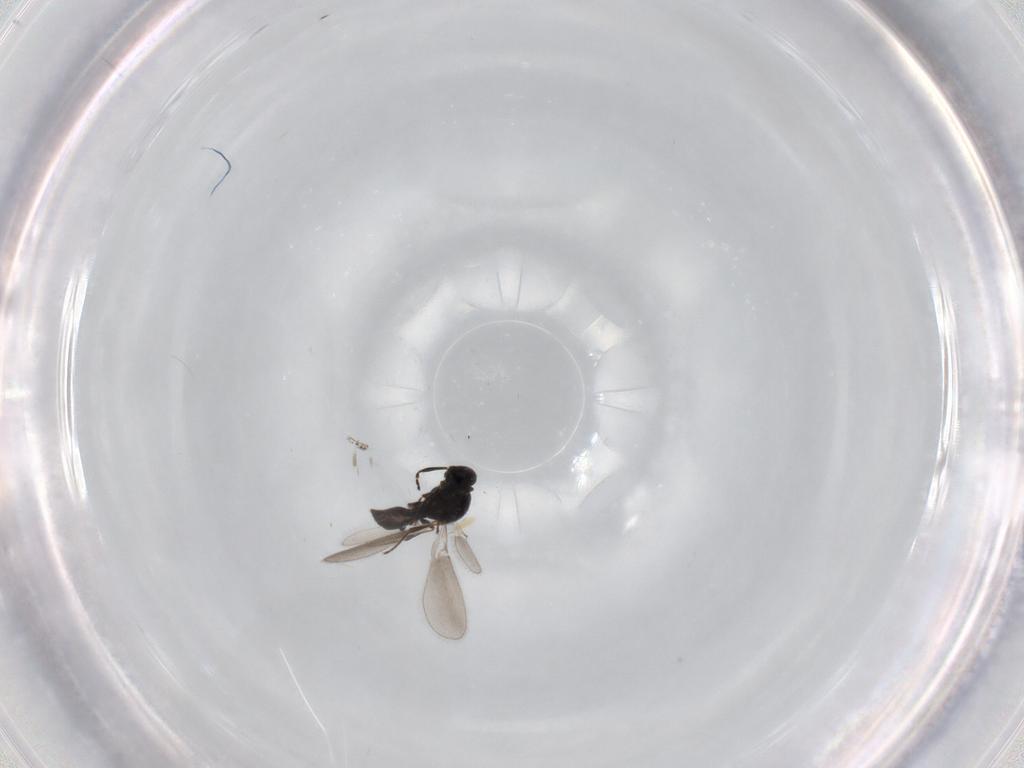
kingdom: Animalia
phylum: Arthropoda
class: Insecta
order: Hymenoptera
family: Platygastridae
